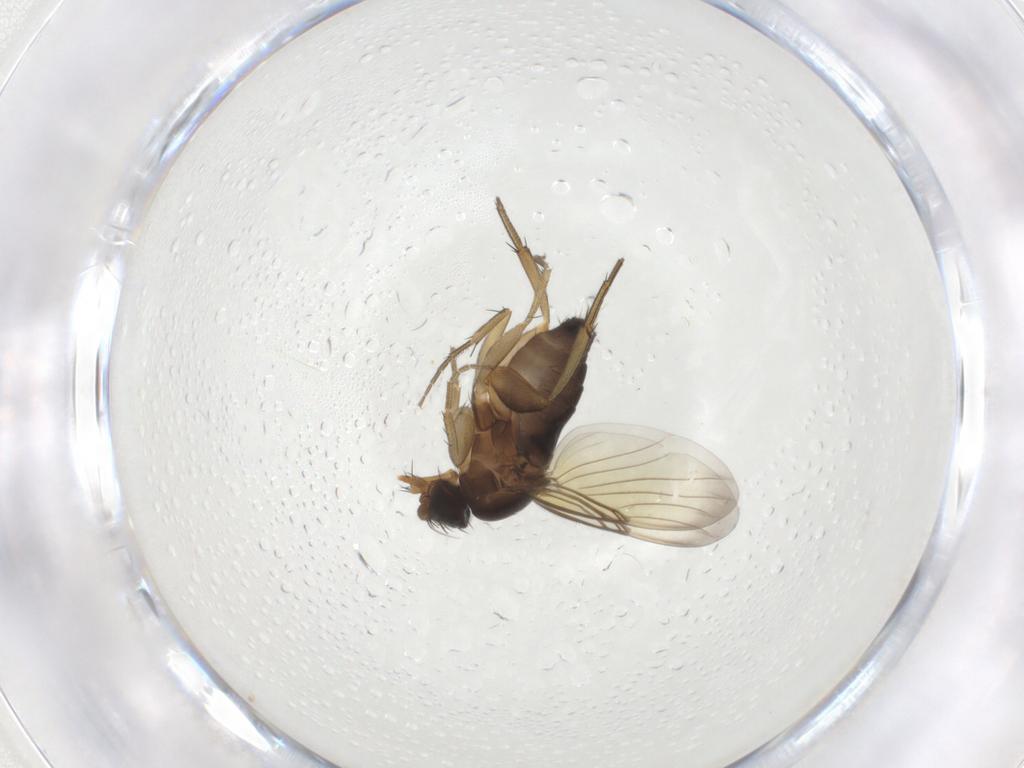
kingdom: Animalia
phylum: Arthropoda
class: Insecta
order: Diptera
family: Phoridae
